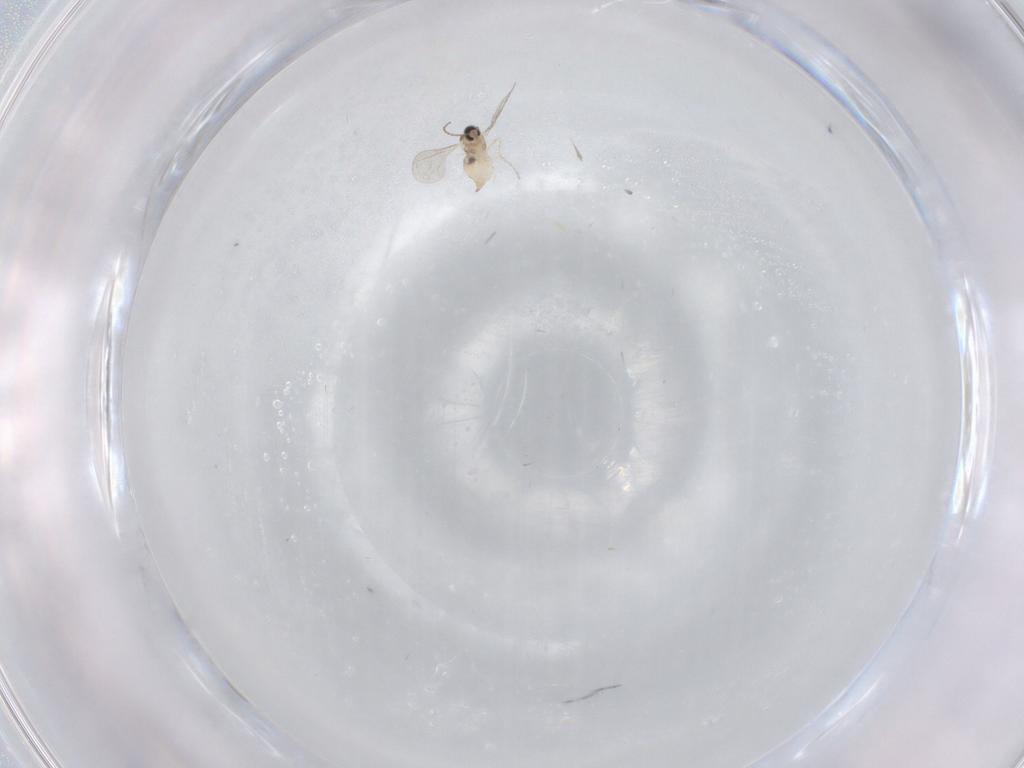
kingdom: Animalia
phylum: Arthropoda
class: Insecta
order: Diptera
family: Cecidomyiidae
